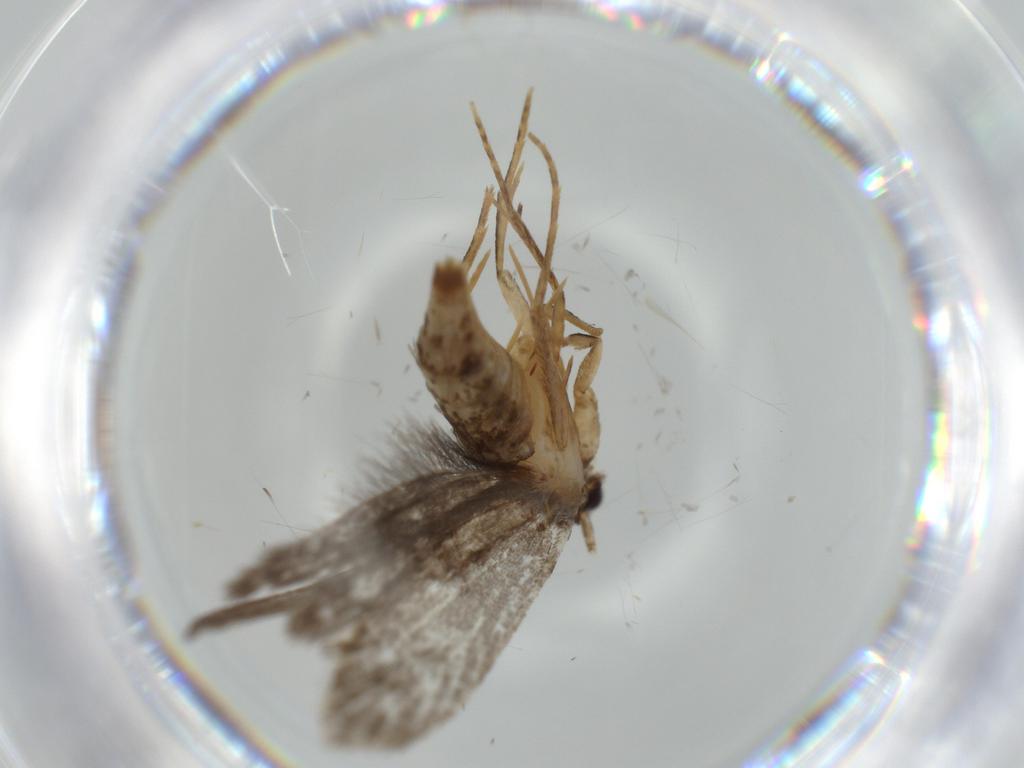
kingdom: Animalia
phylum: Arthropoda
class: Insecta
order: Lepidoptera
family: Gelechiidae
